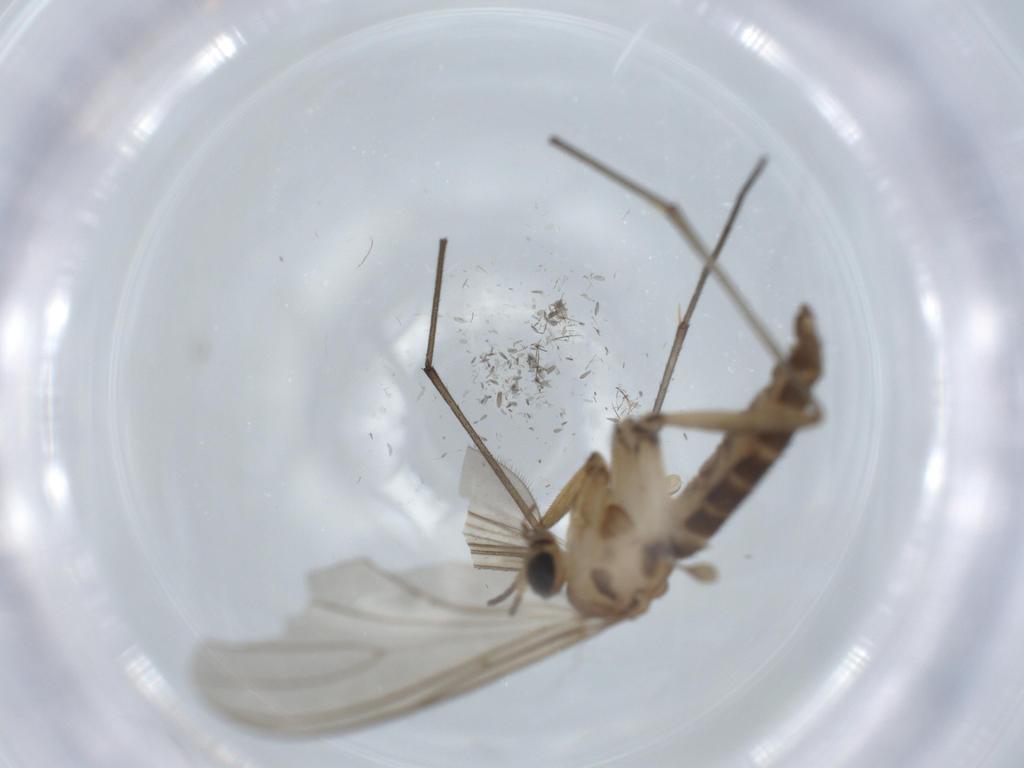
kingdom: Animalia
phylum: Arthropoda
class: Insecta
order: Diptera
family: Sciaridae
